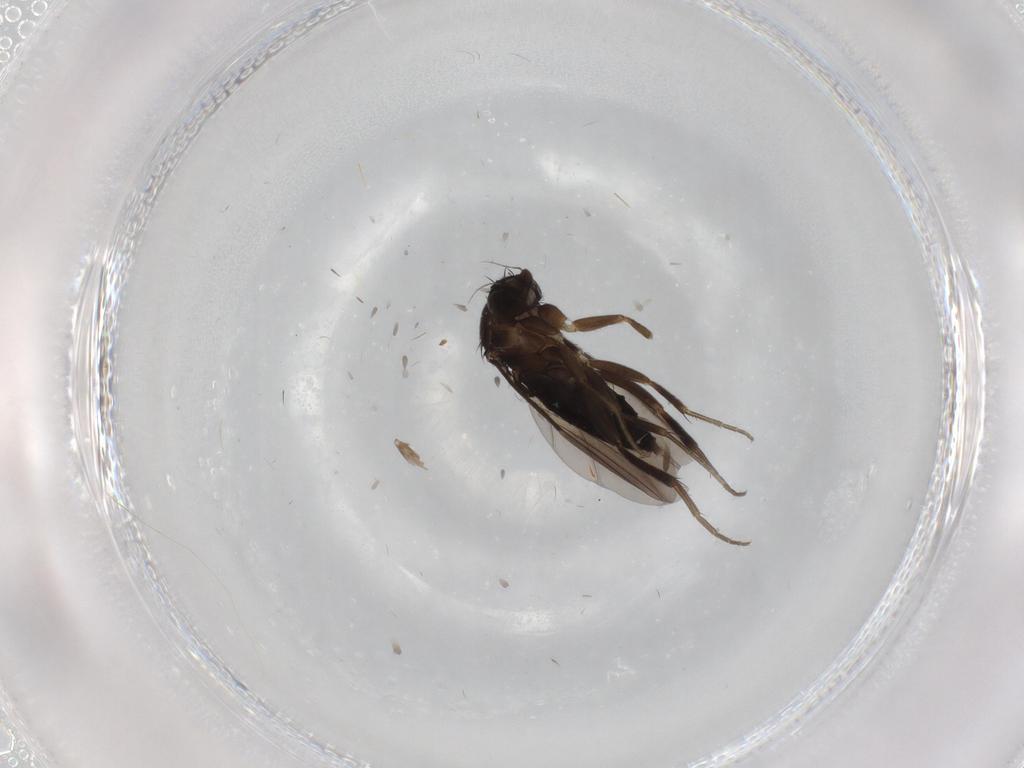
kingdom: Animalia
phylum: Arthropoda
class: Insecta
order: Diptera
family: Phoridae
